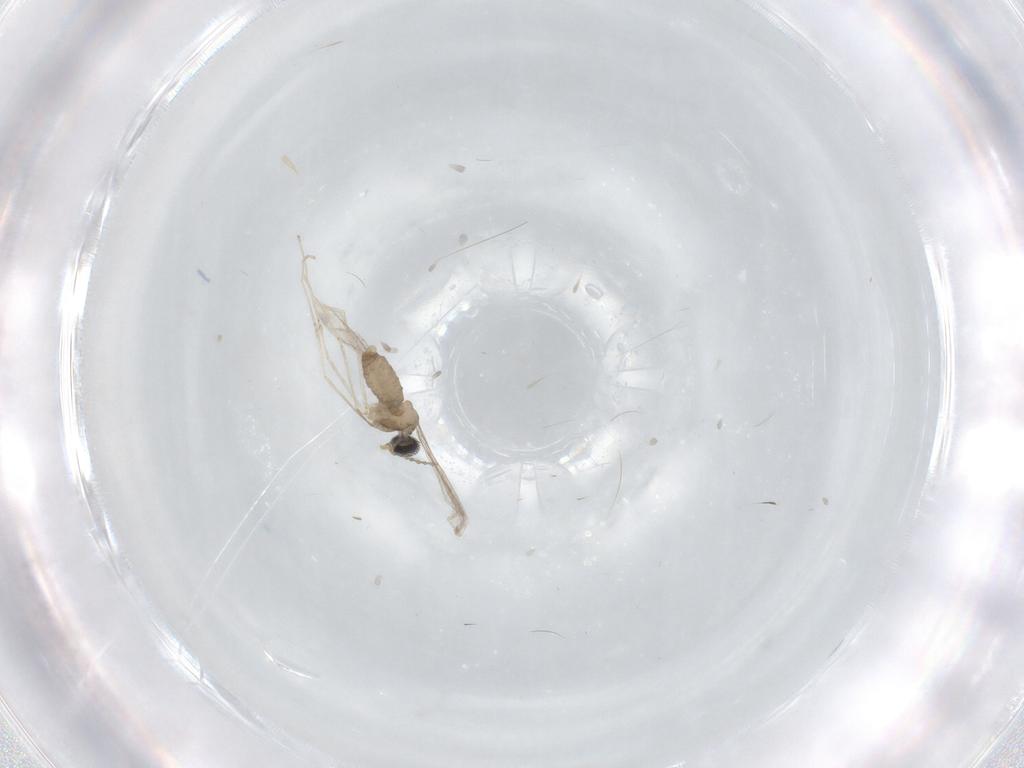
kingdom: Animalia
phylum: Arthropoda
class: Insecta
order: Diptera
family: Cecidomyiidae
